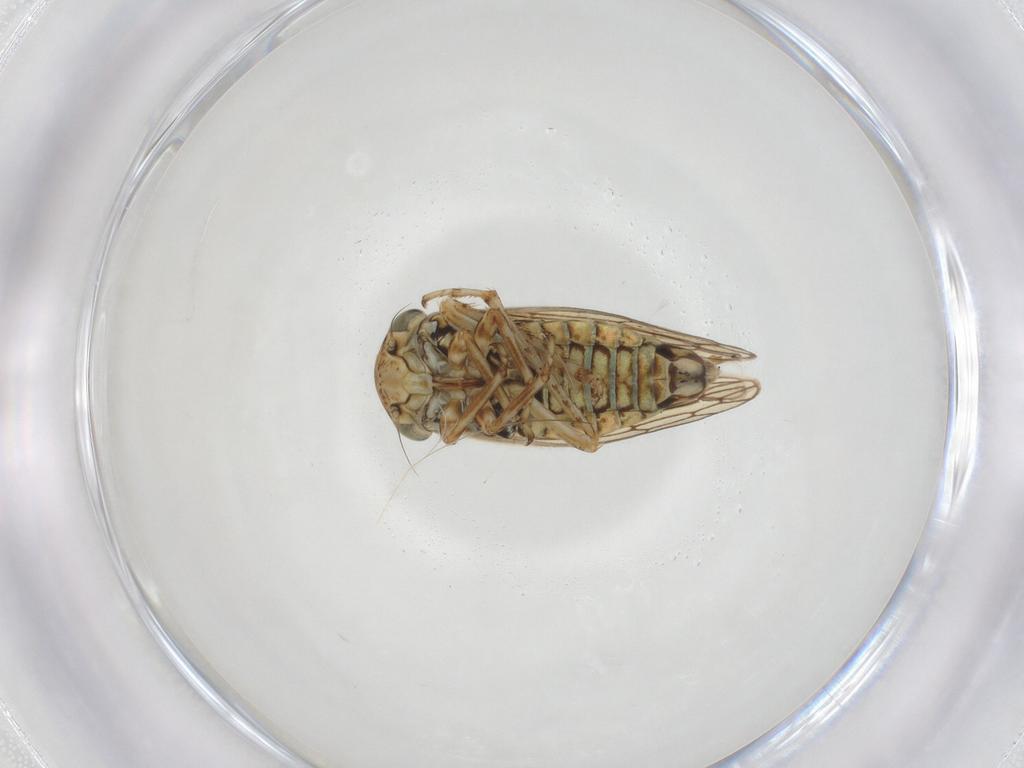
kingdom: Animalia
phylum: Arthropoda
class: Insecta
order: Hemiptera
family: Cicadellidae
